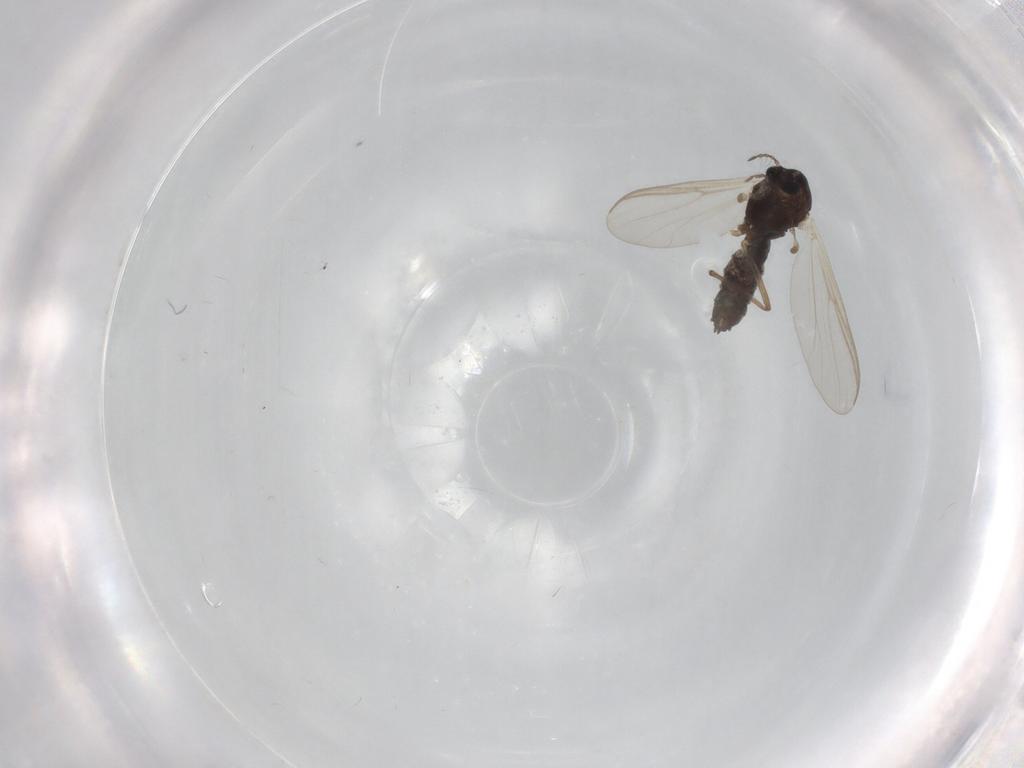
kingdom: Animalia
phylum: Arthropoda
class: Insecta
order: Diptera
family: Chironomidae
